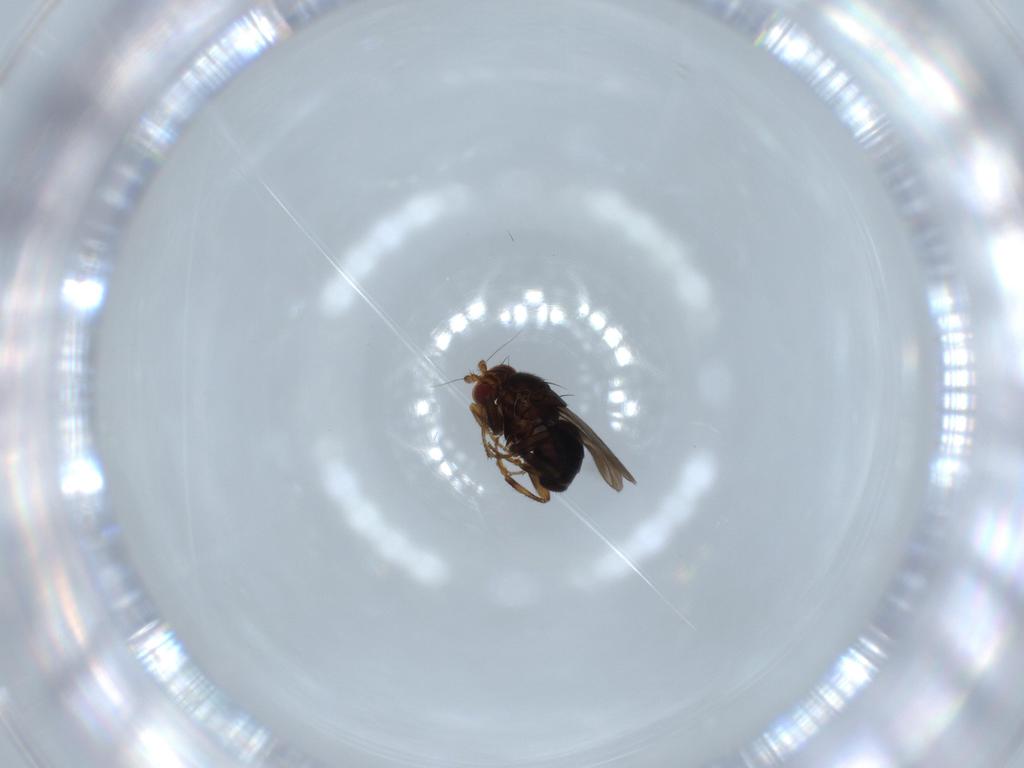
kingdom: Animalia
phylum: Arthropoda
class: Insecta
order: Diptera
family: Sphaeroceridae
